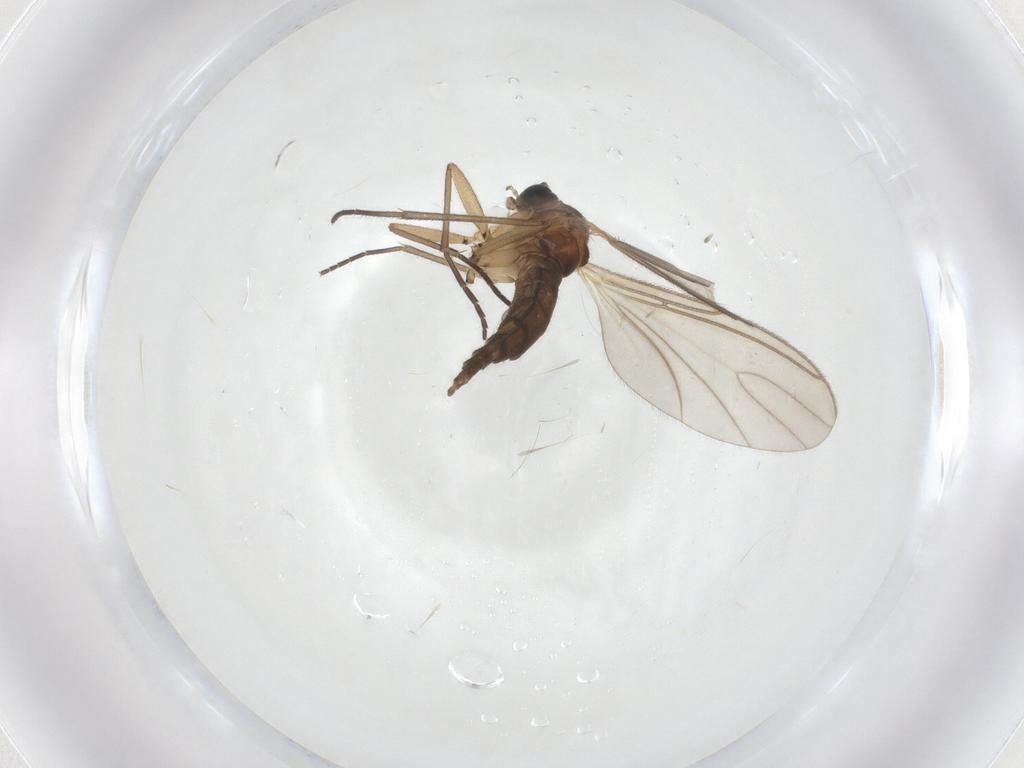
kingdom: Animalia
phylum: Arthropoda
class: Insecta
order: Diptera
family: Sciaridae
